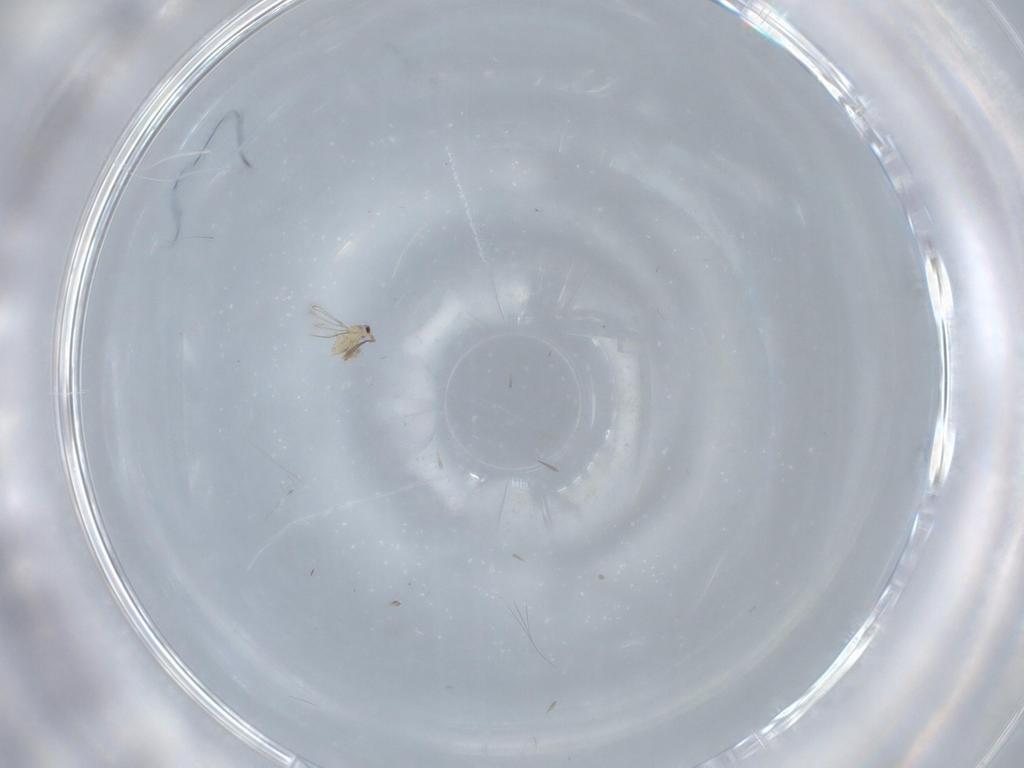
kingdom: Animalia
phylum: Arthropoda
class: Insecta
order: Hymenoptera
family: Mymaridae
